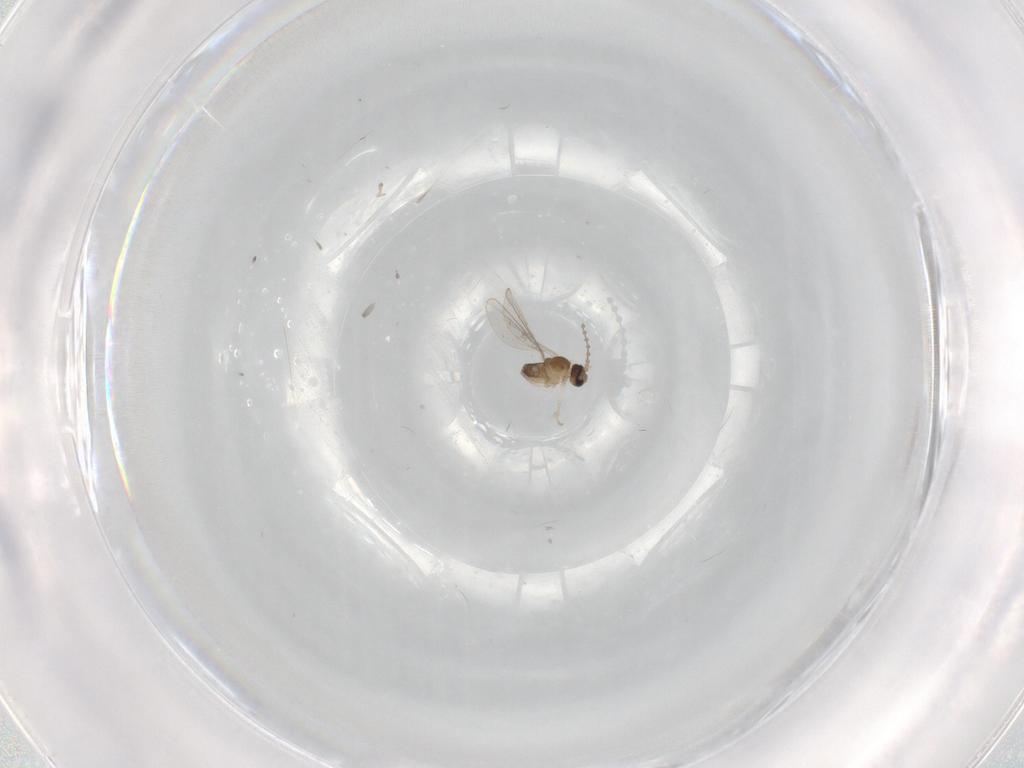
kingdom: Animalia
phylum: Arthropoda
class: Insecta
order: Diptera
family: Cecidomyiidae
